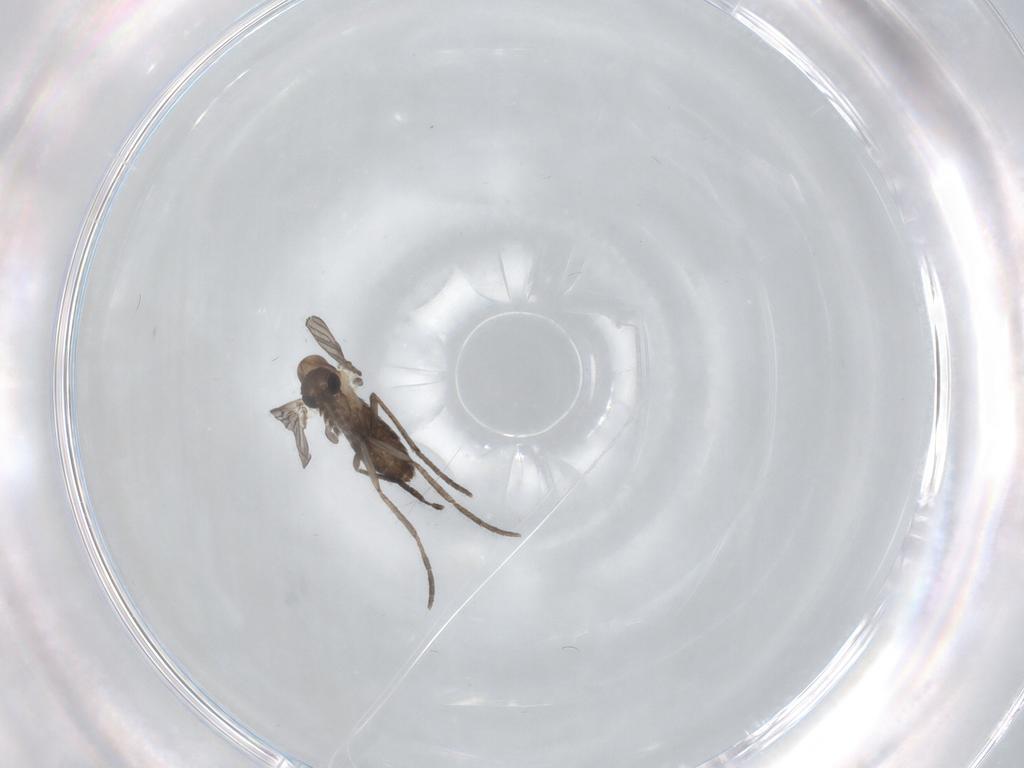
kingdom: Animalia
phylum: Arthropoda
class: Insecta
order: Diptera
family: Psychodidae
